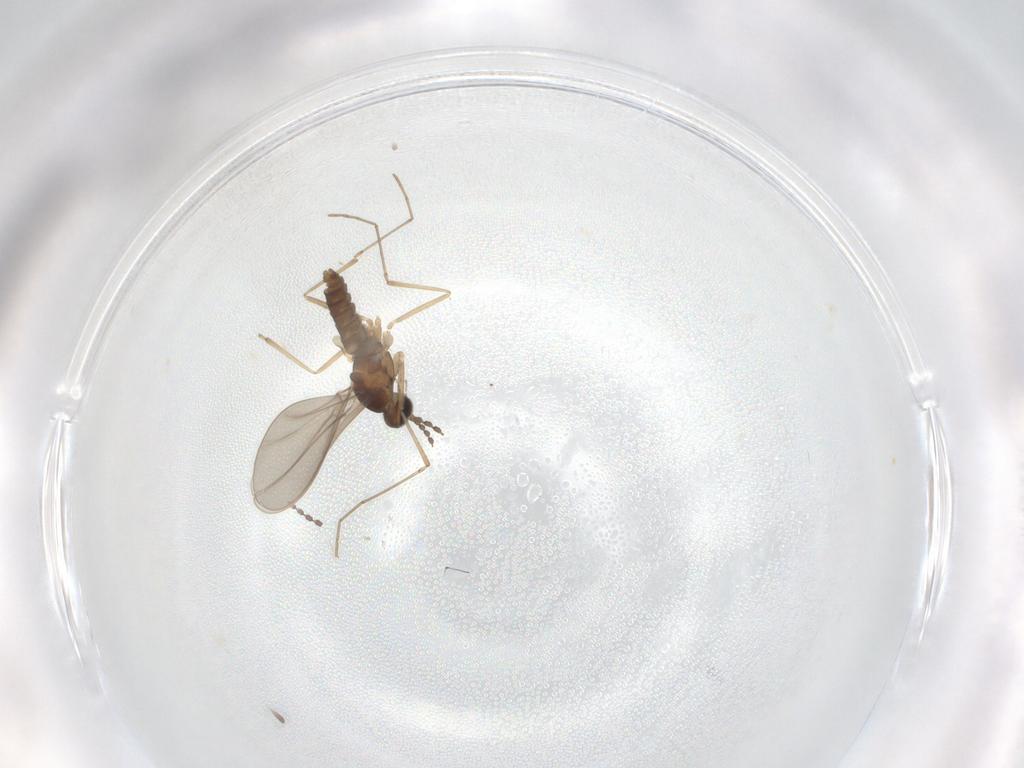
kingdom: Animalia
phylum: Arthropoda
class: Insecta
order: Diptera
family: Cecidomyiidae
